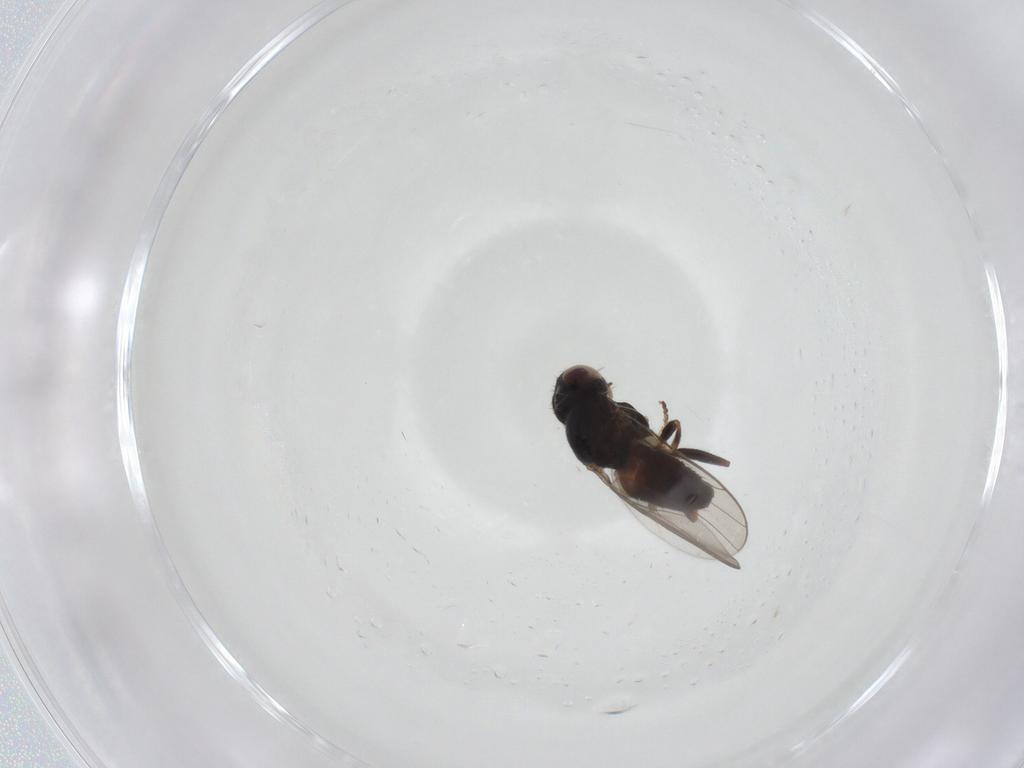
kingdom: Animalia
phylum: Arthropoda
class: Insecta
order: Diptera
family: Chloropidae
